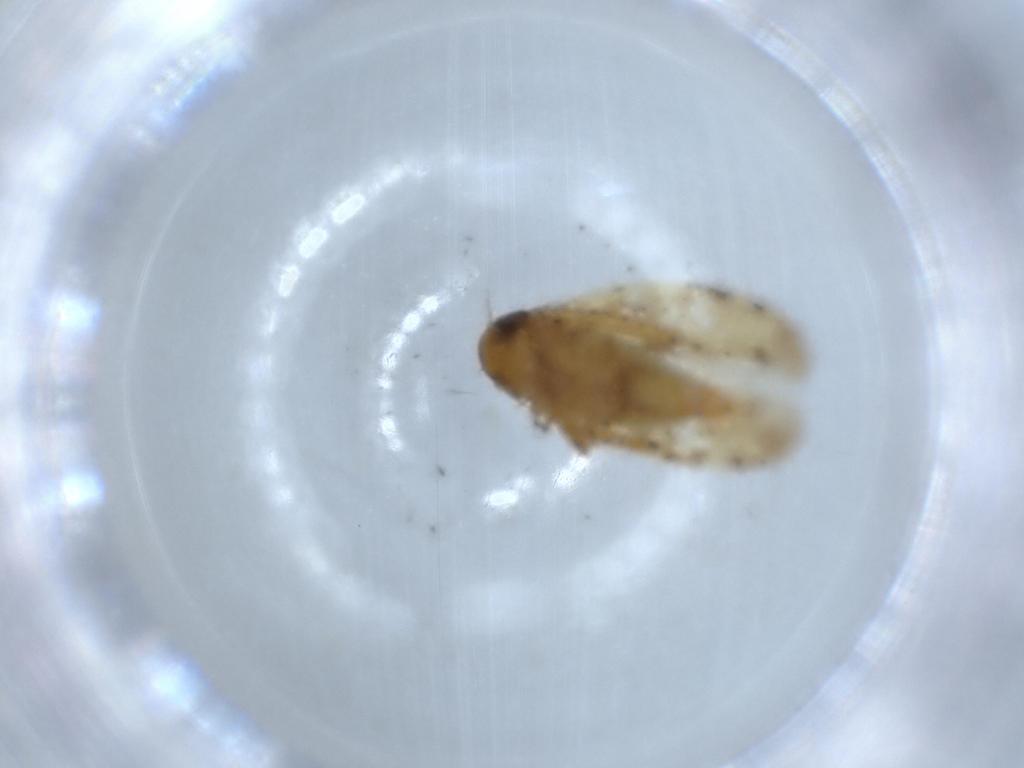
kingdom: Animalia
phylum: Arthropoda
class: Insecta
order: Hemiptera
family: Cicadellidae
